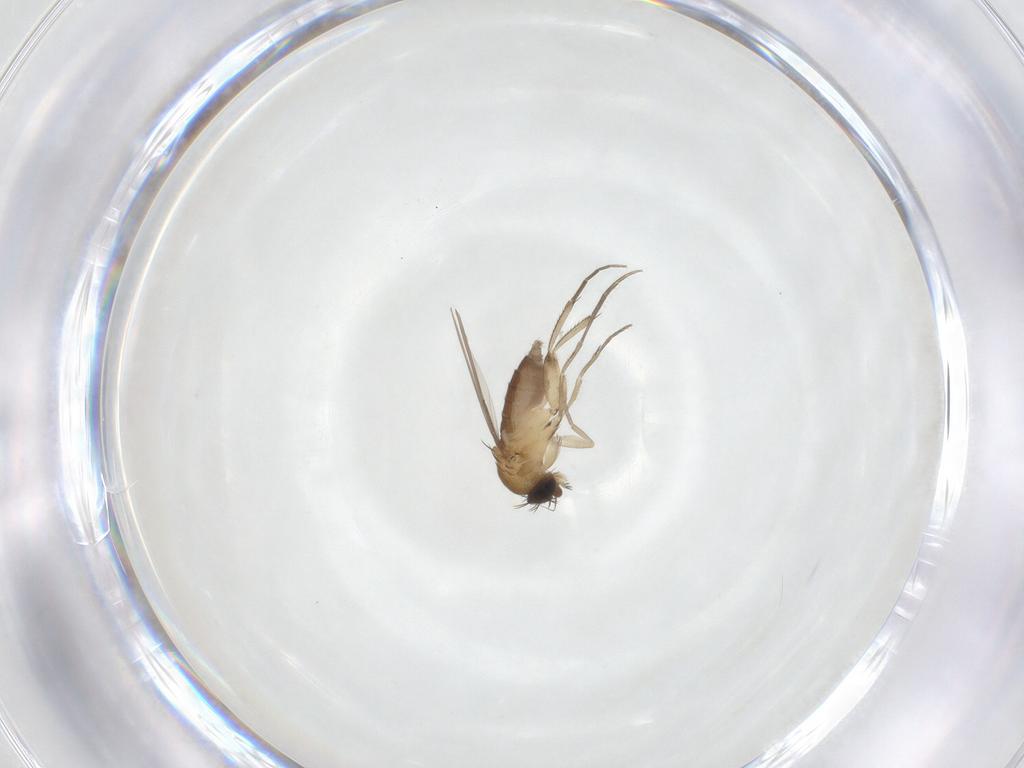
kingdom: Animalia
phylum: Arthropoda
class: Insecta
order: Diptera
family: Phoridae
